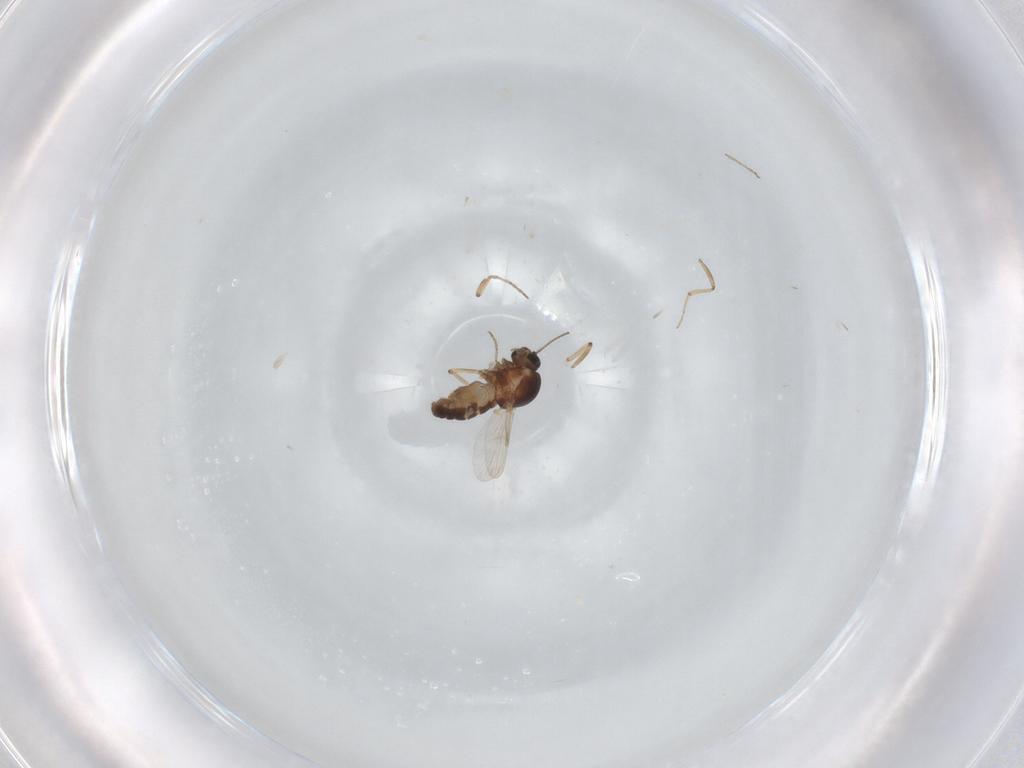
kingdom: Animalia
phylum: Arthropoda
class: Insecta
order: Diptera
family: Ceratopogonidae
